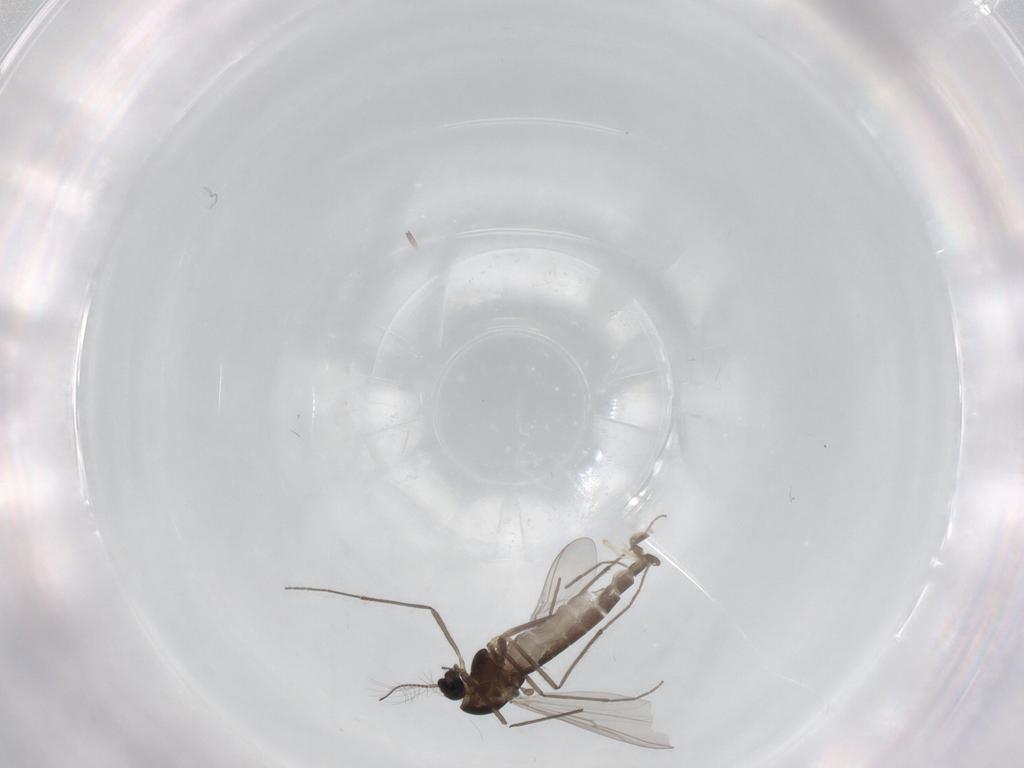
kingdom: Animalia
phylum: Arthropoda
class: Insecta
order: Diptera
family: Chironomidae
